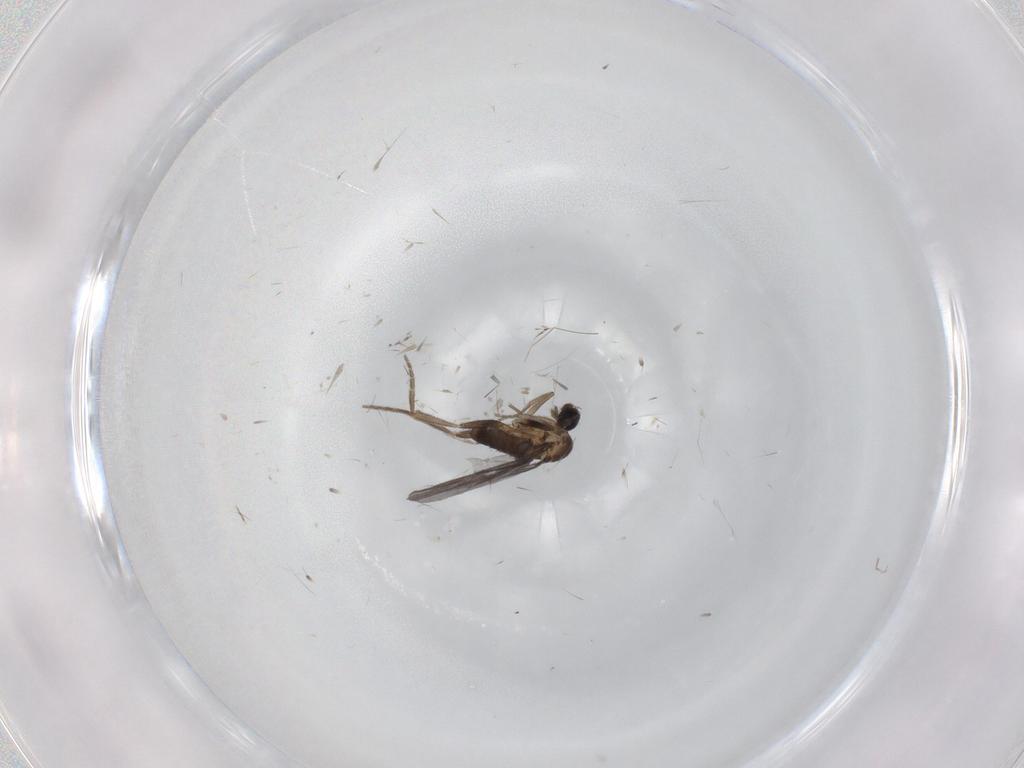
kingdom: Animalia
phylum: Arthropoda
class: Insecta
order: Diptera
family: Phoridae
